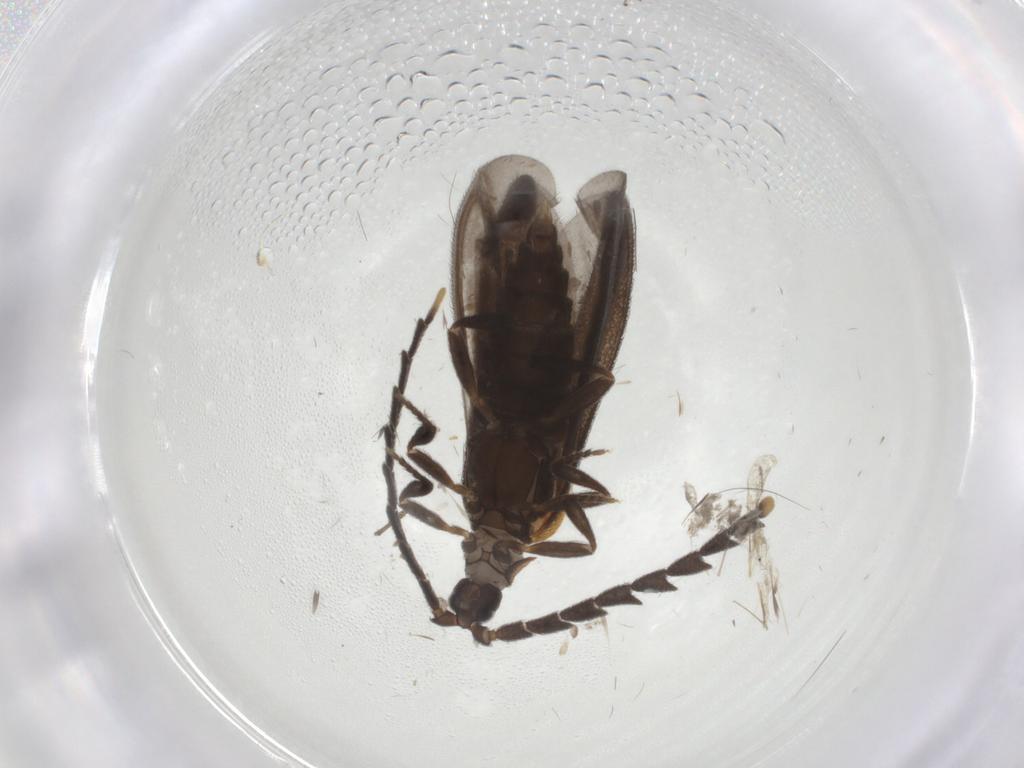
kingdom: Animalia
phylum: Arthropoda
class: Insecta
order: Coleoptera
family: Lycidae
